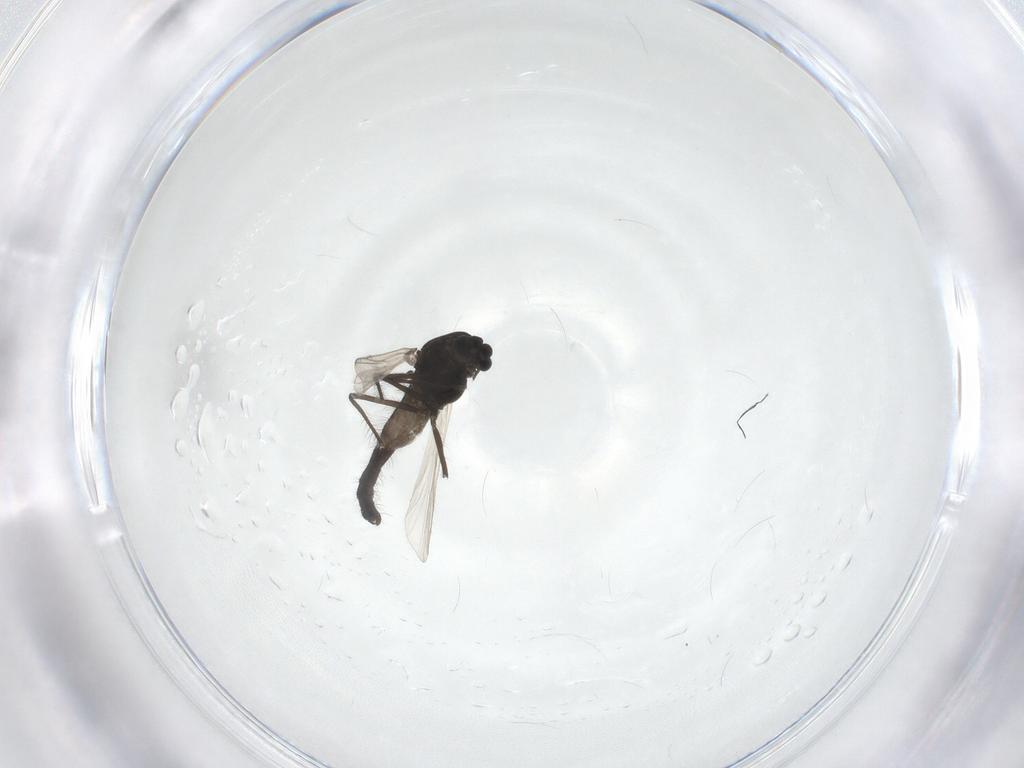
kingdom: Animalia
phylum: Arthropoda
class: Insecta
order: Diptera
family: Chironomidae
